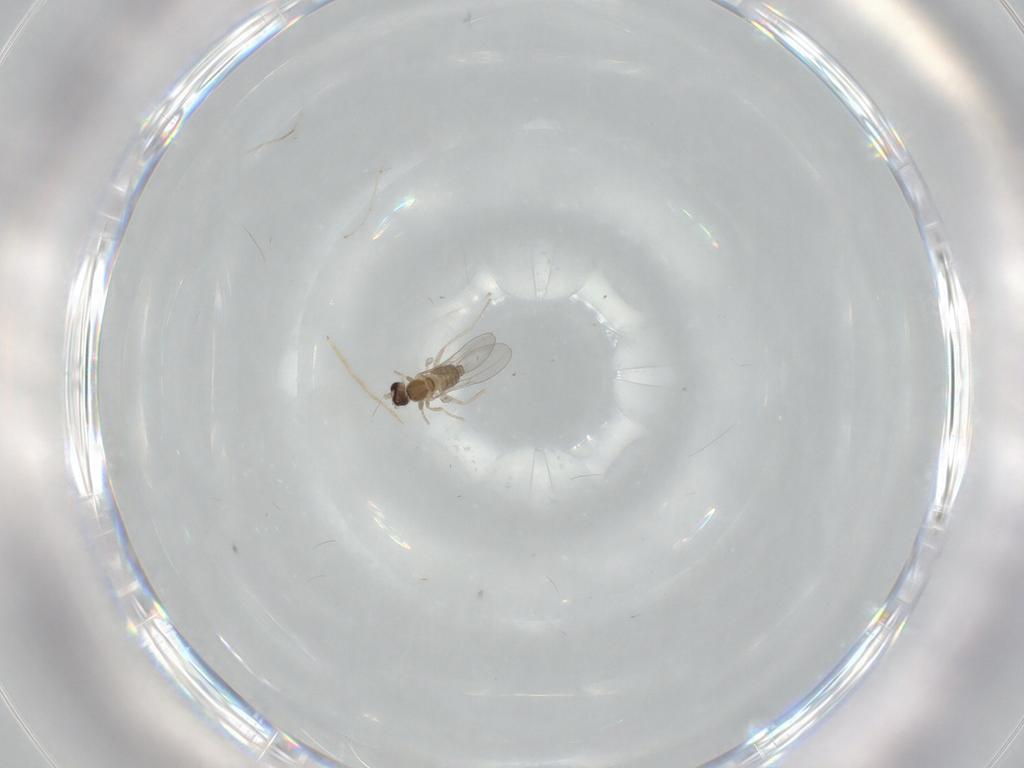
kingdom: Animalia
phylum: Arthropoda
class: Insecta
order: Diptera
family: Cecidomyiidae
